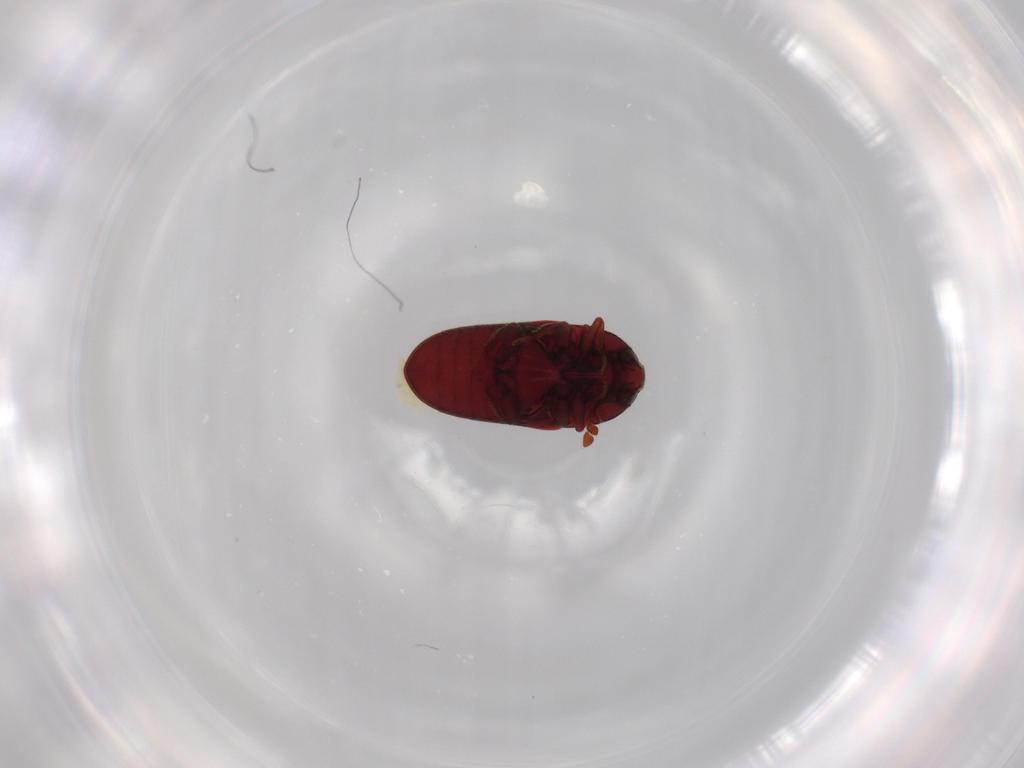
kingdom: Animalia
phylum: Arthropoda
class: Insecta
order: Coleoptera
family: Throscidae
